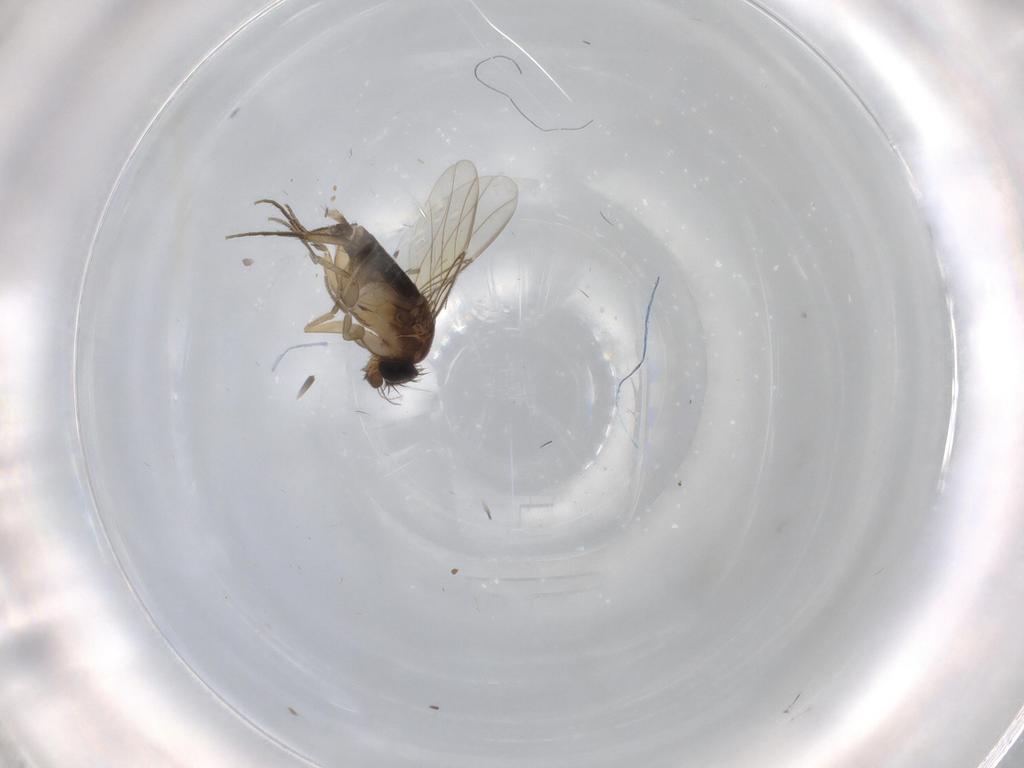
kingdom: Animalia
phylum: Arthropoda
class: Insecta
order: Diptera
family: Phoridae
